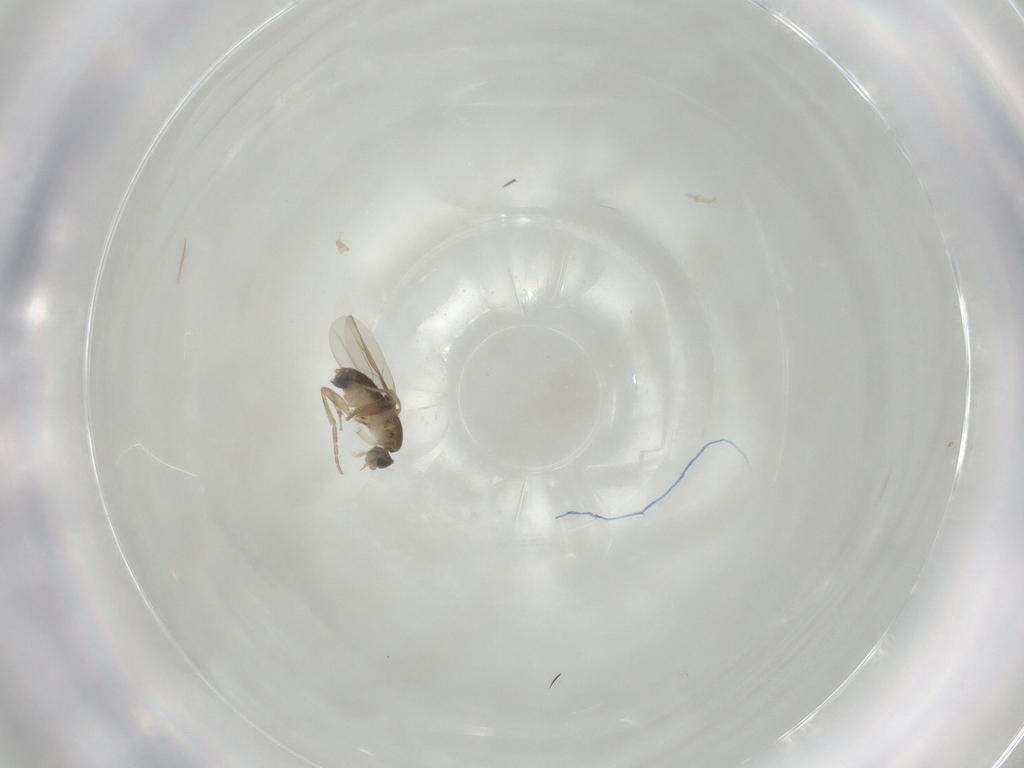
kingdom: Animalia
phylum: Arthropoda
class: Insecta
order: Diptera
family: Phoridae
